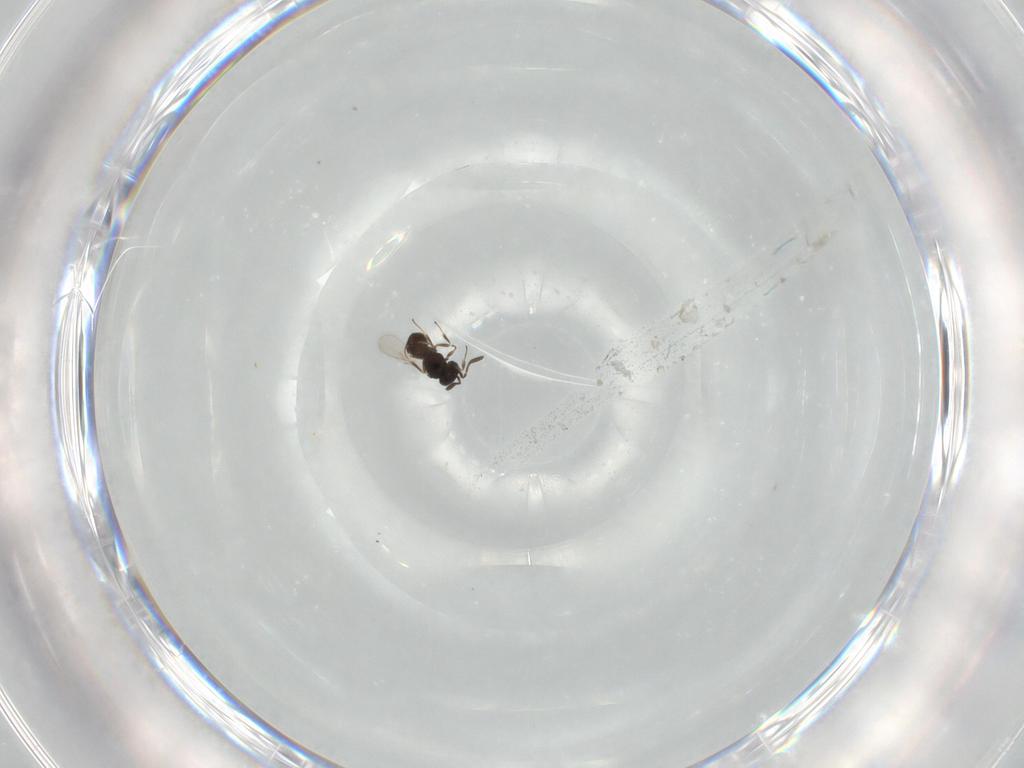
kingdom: Animalia
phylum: Arthropoda
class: Insecta
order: Hymenoptera
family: Scelionidae
